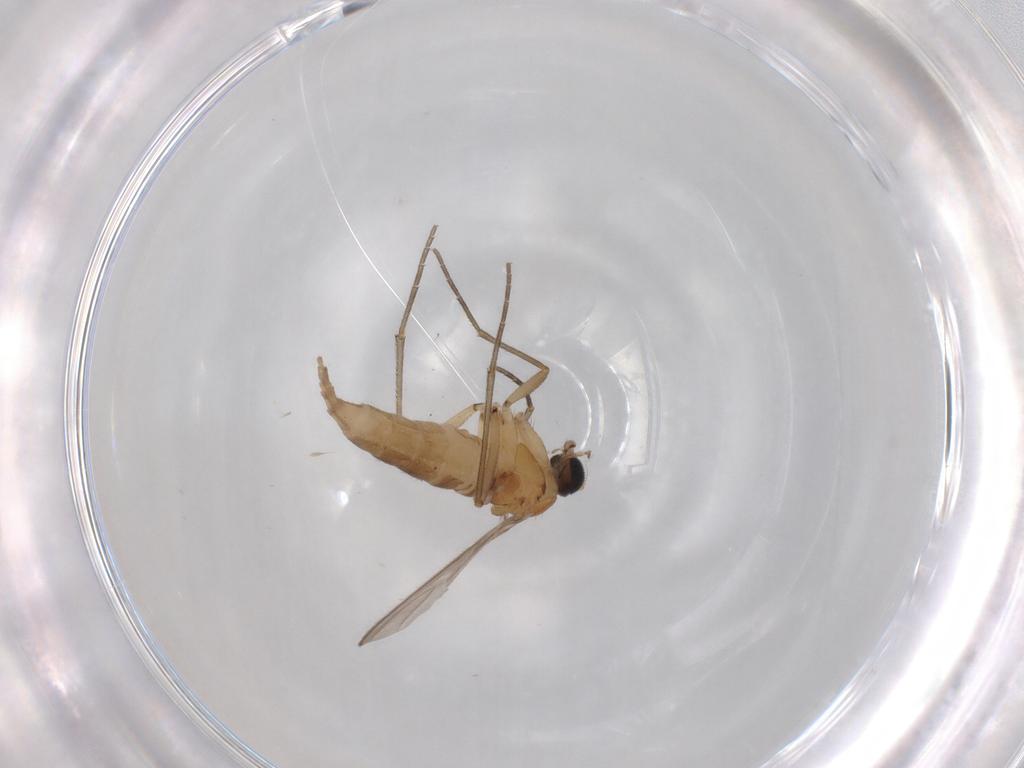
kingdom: Animalia
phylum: Arthropoda
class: Insecta
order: Diptera
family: Sciaridae
